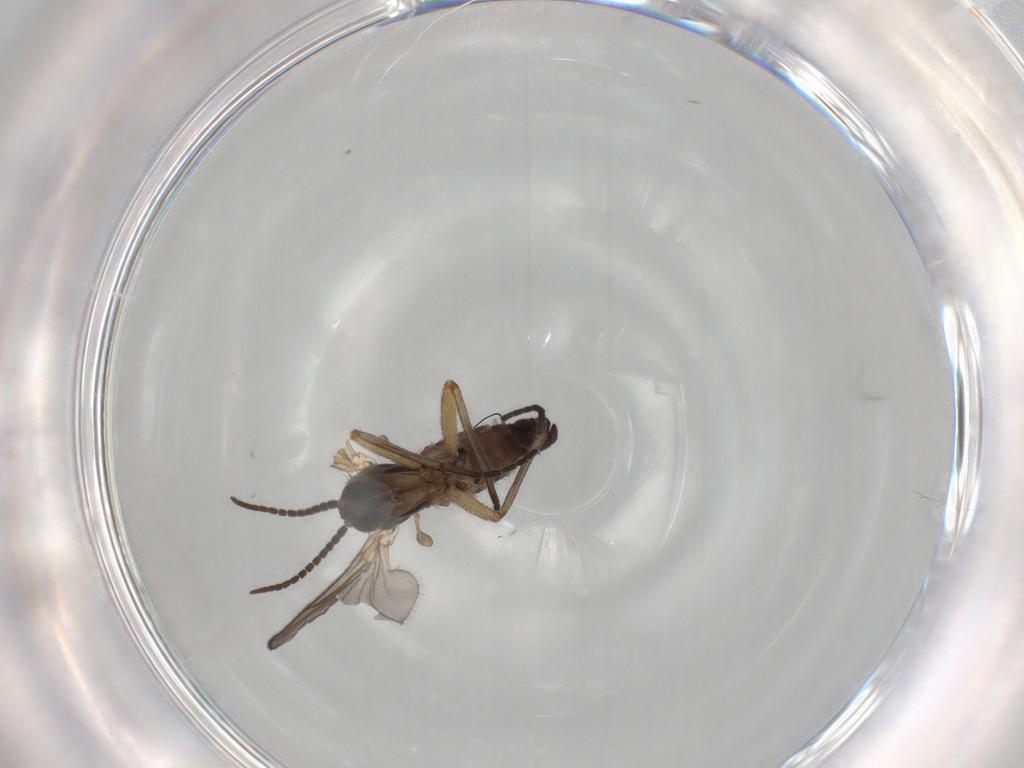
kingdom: Animalia
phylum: Arthropoda
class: Insecta
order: Diptera
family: Sciaridae
